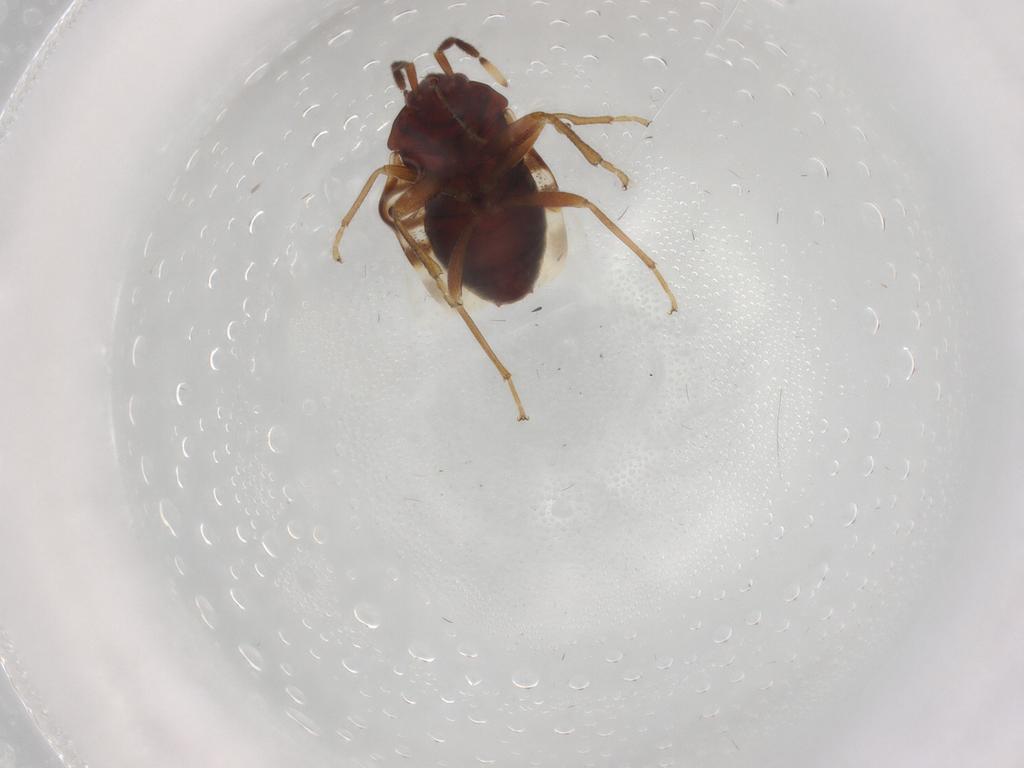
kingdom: Animalia
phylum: Arthropoda
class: Insecta
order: Hemiptera
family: Rhyparochromidae
